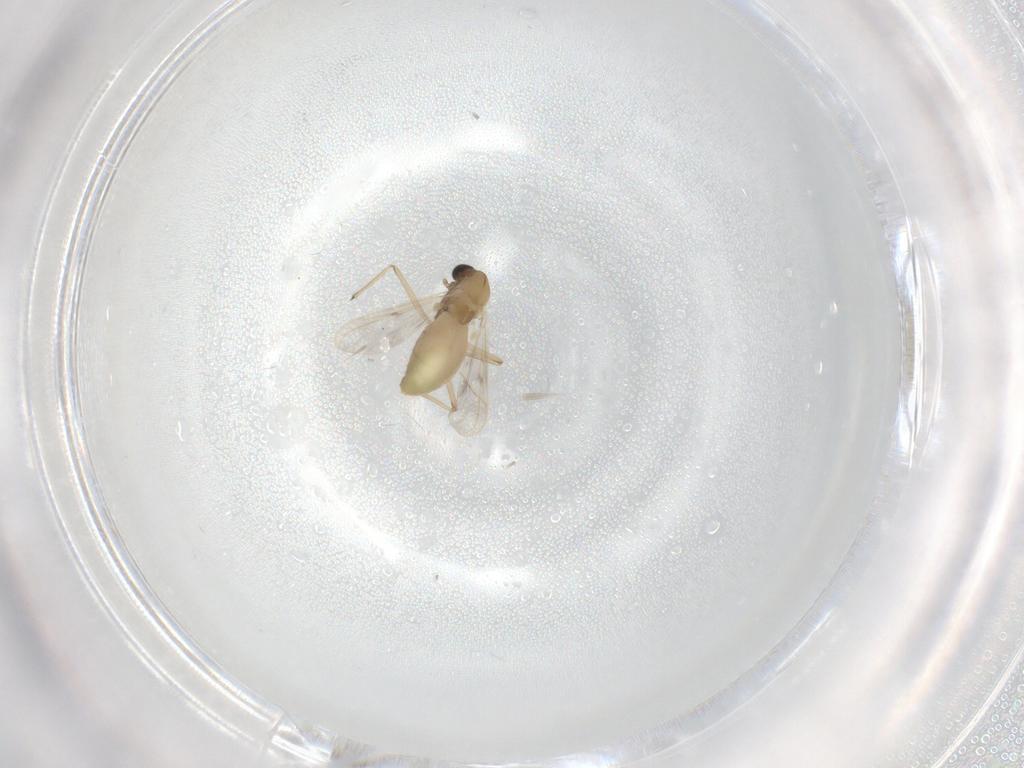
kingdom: Animalia
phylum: Arthropoda
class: Insecta
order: Diptera
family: Phoridae
